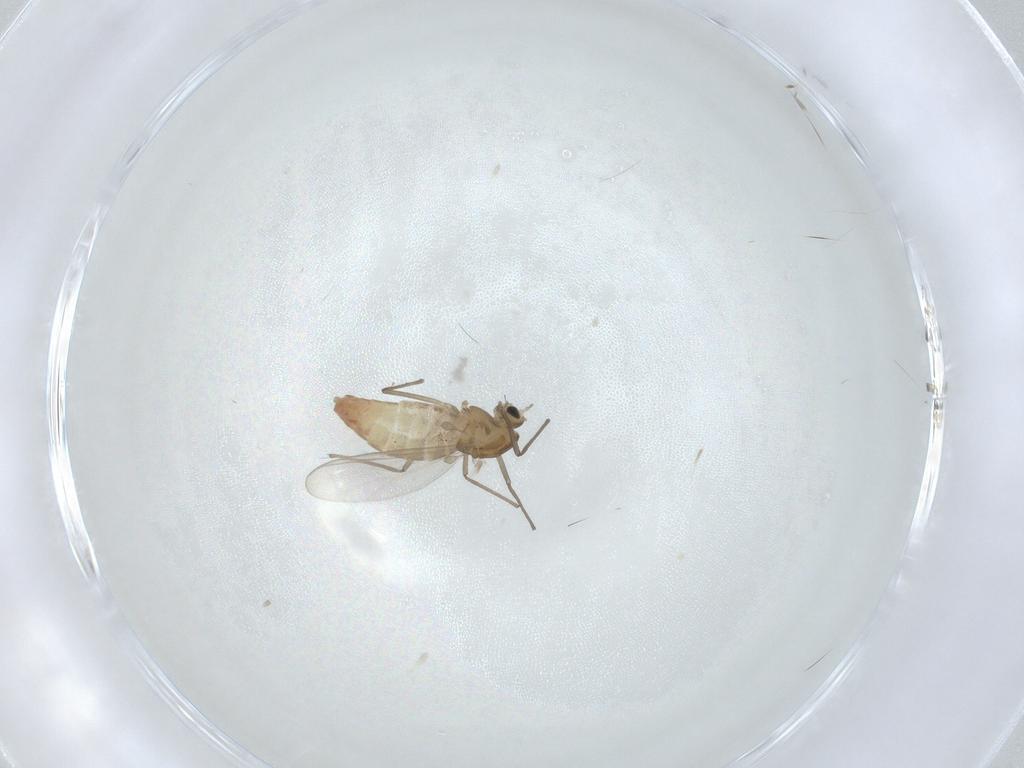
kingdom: Animalia
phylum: Arthropoda
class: Insecta
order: Diptera
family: Chironomidae
